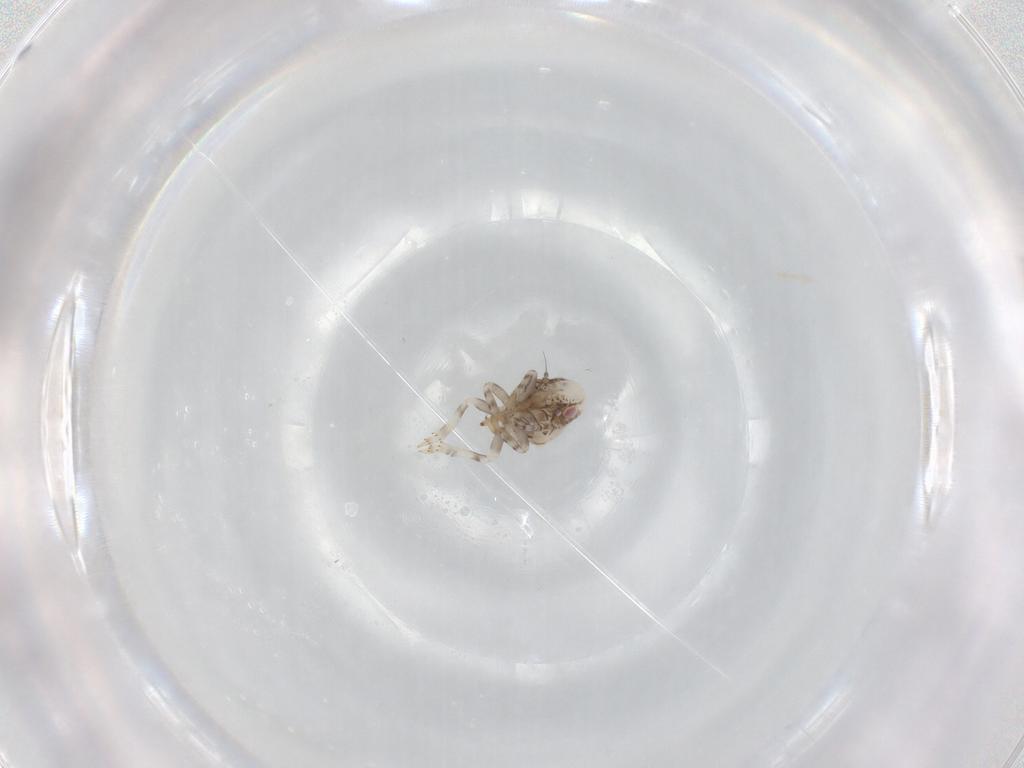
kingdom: Animalia
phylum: Arthropoda
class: Insecta
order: Hemiptera
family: Acanaloniidae
